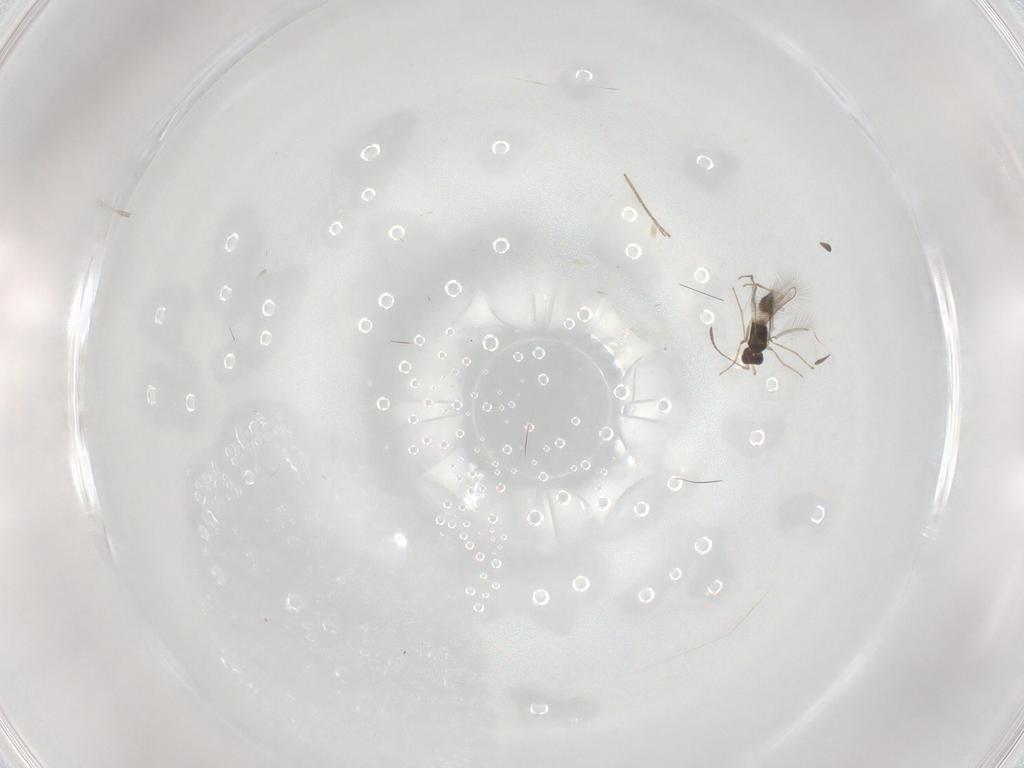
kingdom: Animalia
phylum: Arthropoda
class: Insecta
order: Hymenoptera
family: Mymaridae
